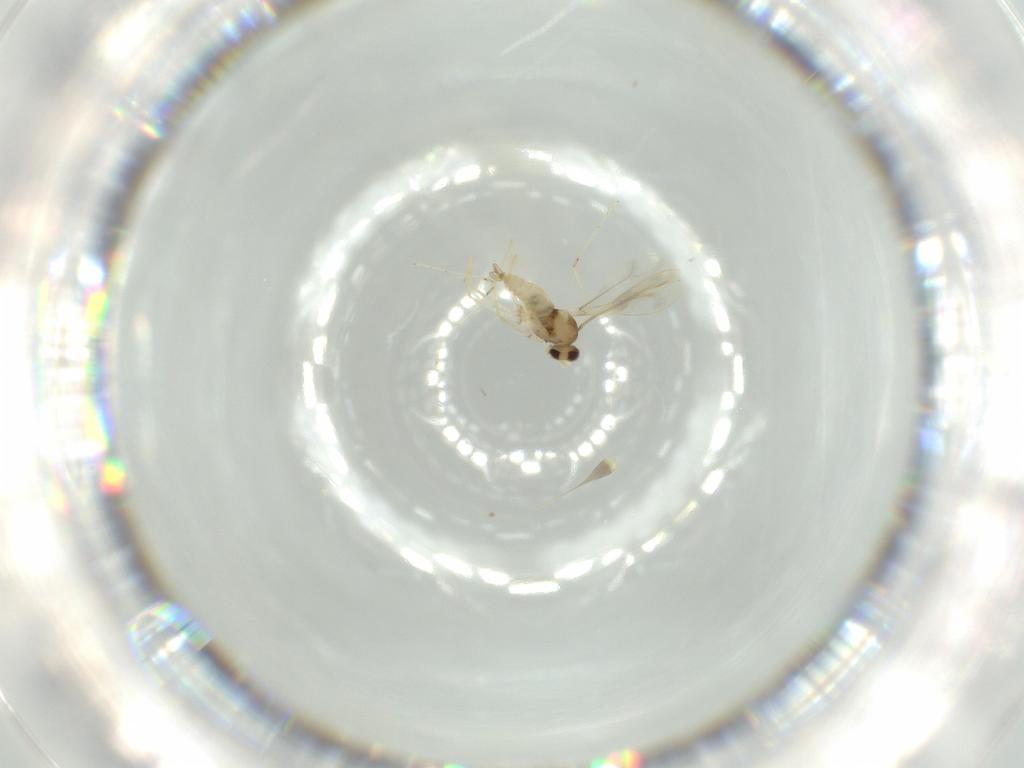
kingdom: Animalia
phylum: Arthropoda
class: Insecta
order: Diptera
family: Cecidomyiidae
